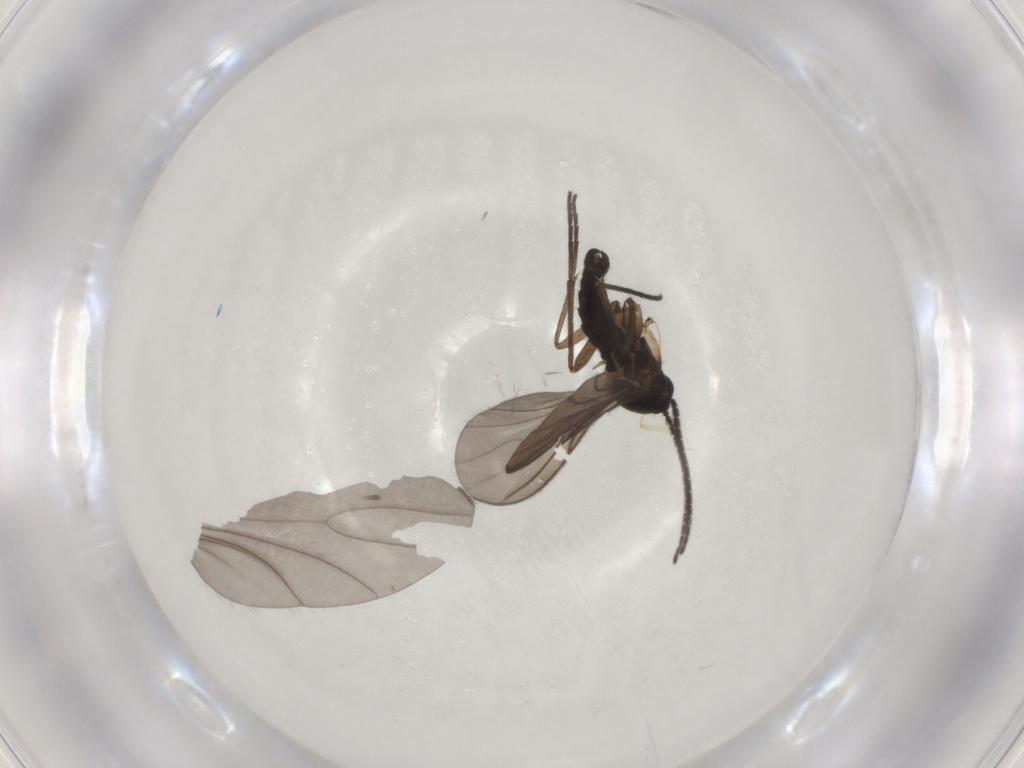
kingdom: Animalia
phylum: Arthropoda
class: Insecta
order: Diptera
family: Sciaridae
